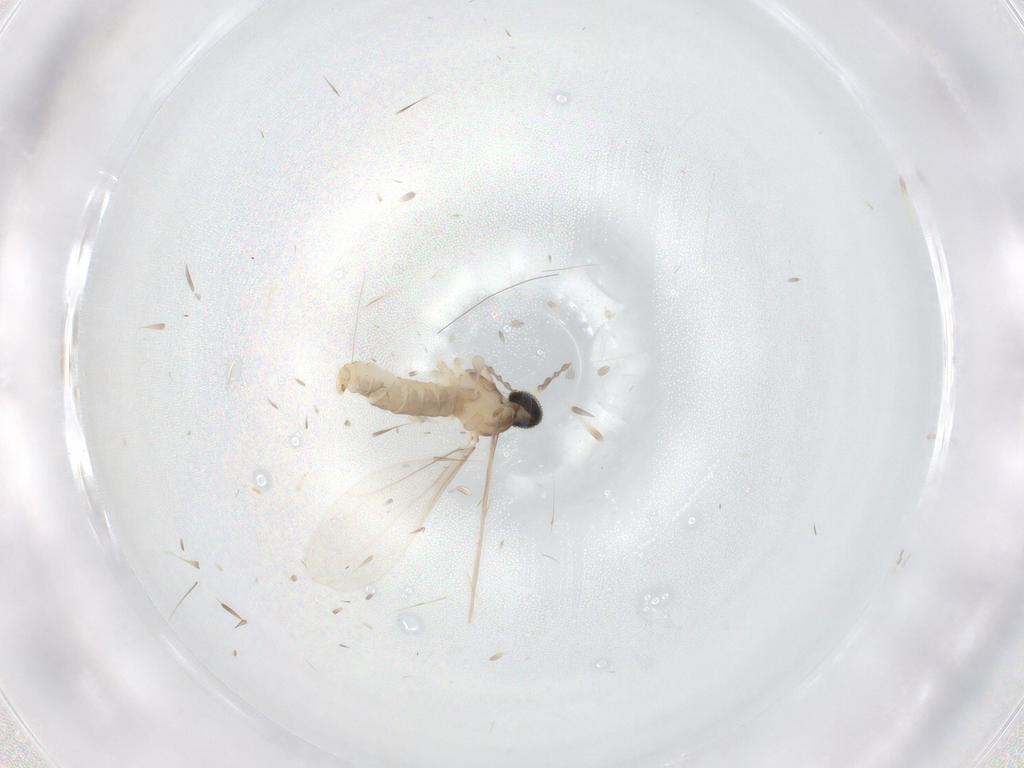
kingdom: Animalia
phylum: Arthropoda
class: Insecta
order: Diptera
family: Cecidomyiidae
